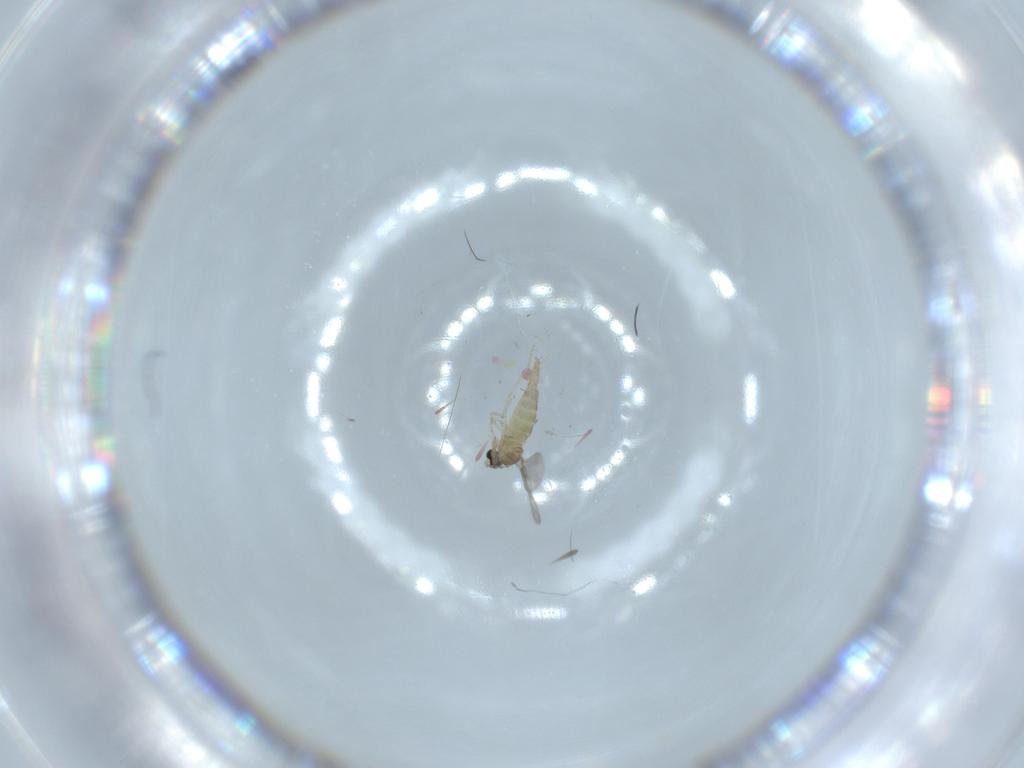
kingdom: Animalia
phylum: Arthropoda
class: Insecta
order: Diptera
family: Cecidomyiidae
